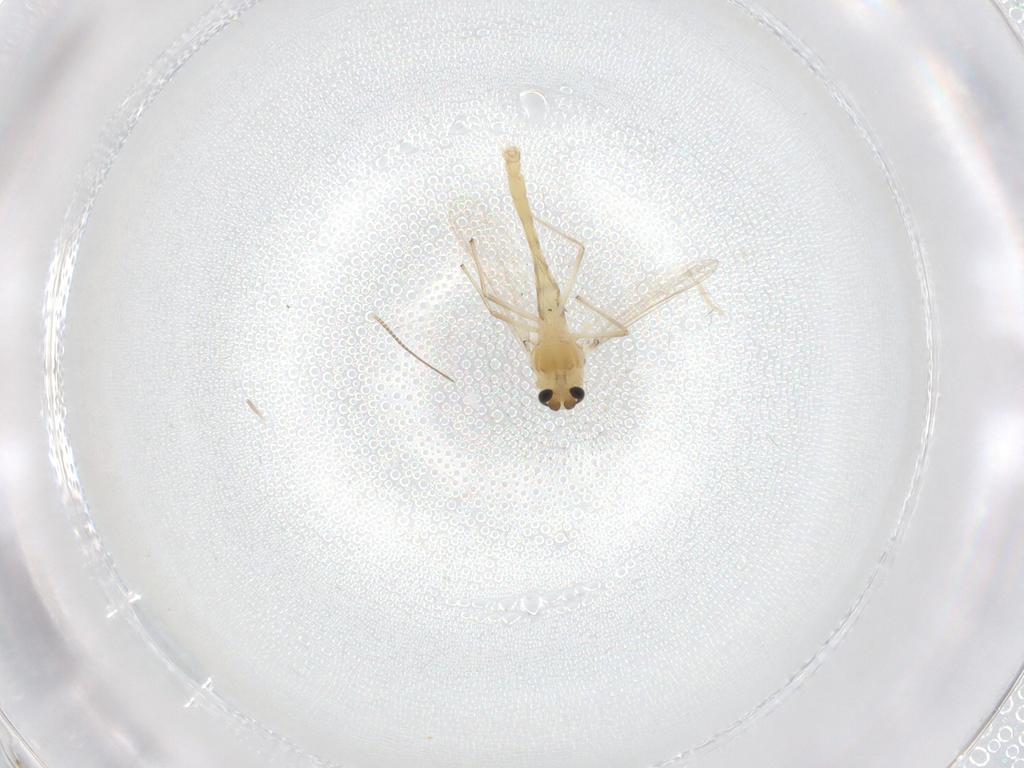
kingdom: Animalia
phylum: Arthropoda
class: Insecta
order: Diptera
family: Chironomidae
